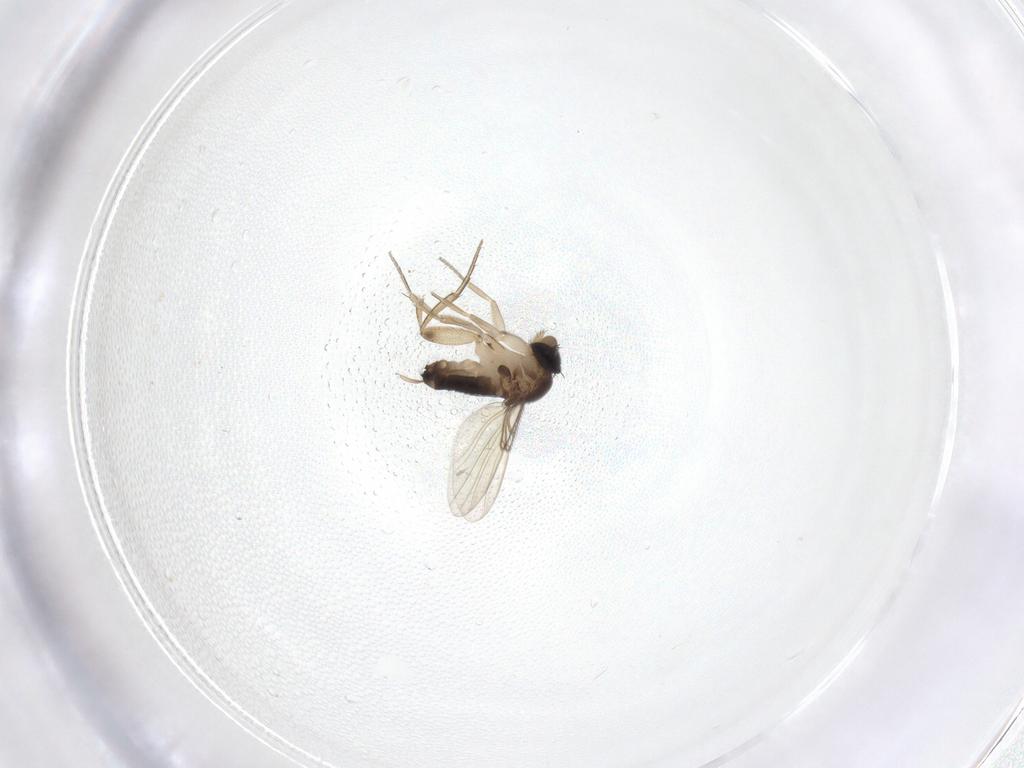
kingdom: Animalia
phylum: Arthropoda
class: Insecta
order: Diptera
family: Phoridae
